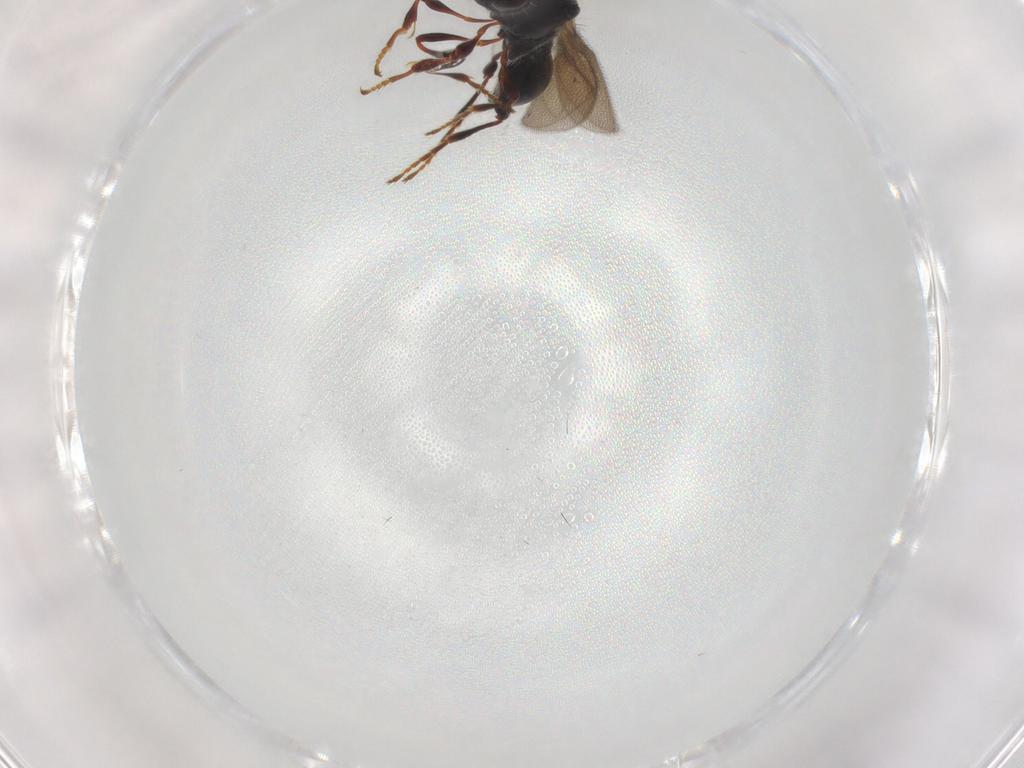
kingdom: Animalia
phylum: Arthropoda
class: Insecta
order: Hymenoptera
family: Diapriidae
